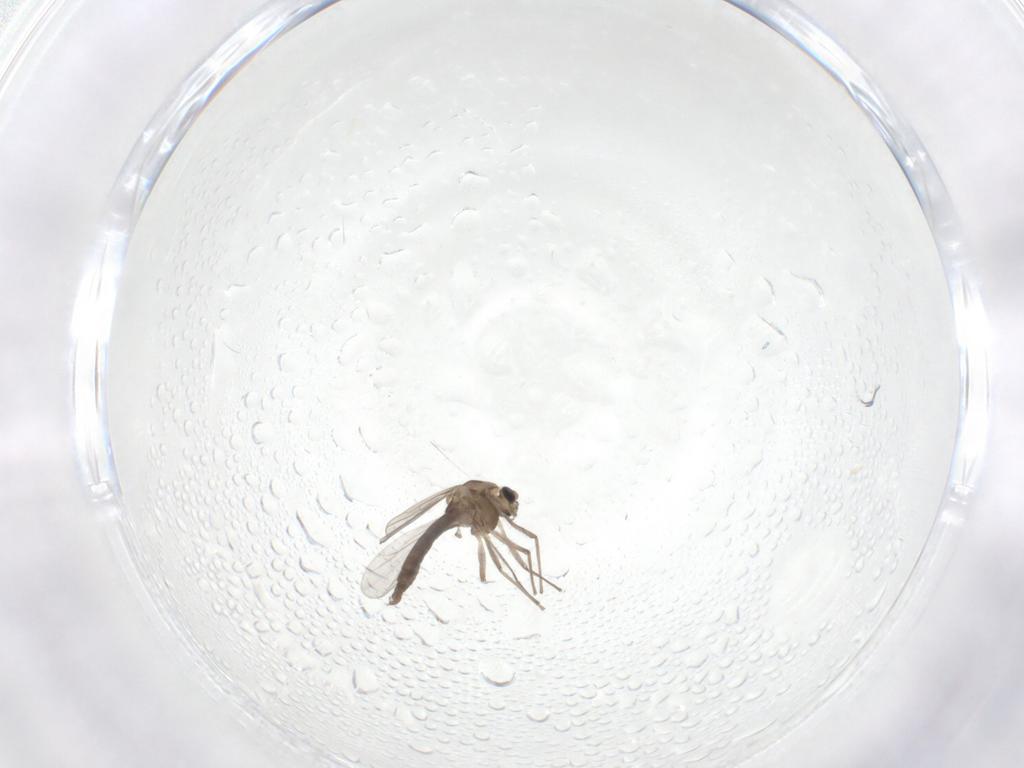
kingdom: Animalia
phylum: Arthropoda
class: Insecta
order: Diptera
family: Chironomidae
